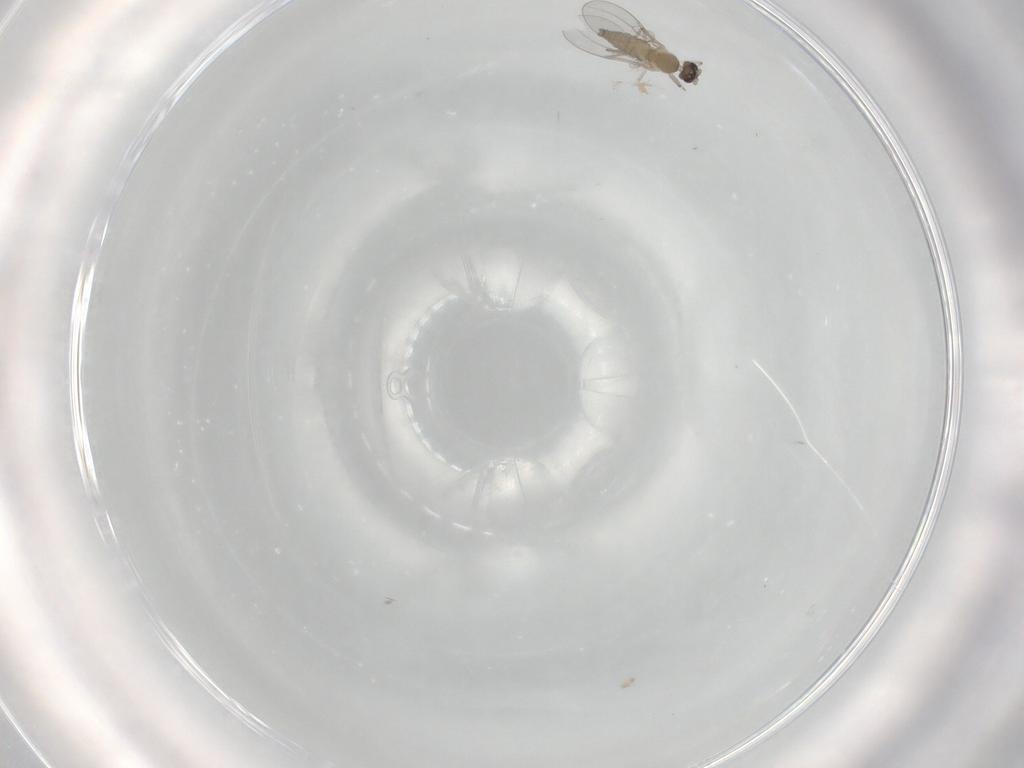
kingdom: Animalia
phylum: Arthropoda
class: Insecta
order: Diptera
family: Cecidomyiidae
